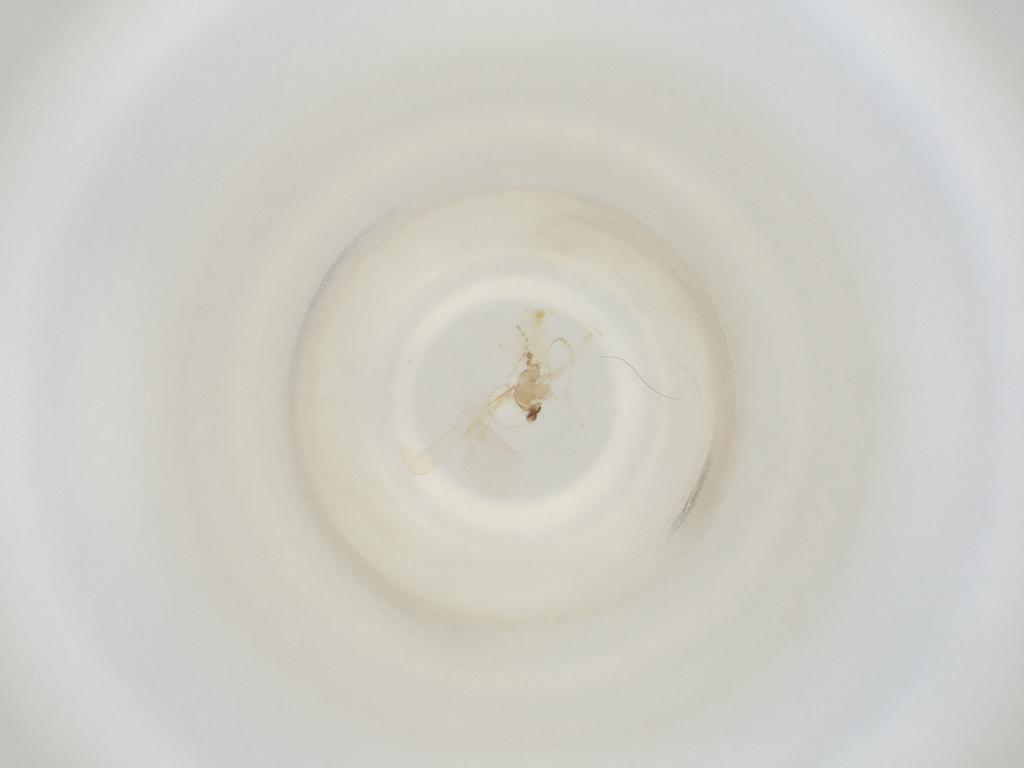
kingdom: Animalia
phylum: Arthropoda
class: Insecta
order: Diptera
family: Cecidomyiidae
